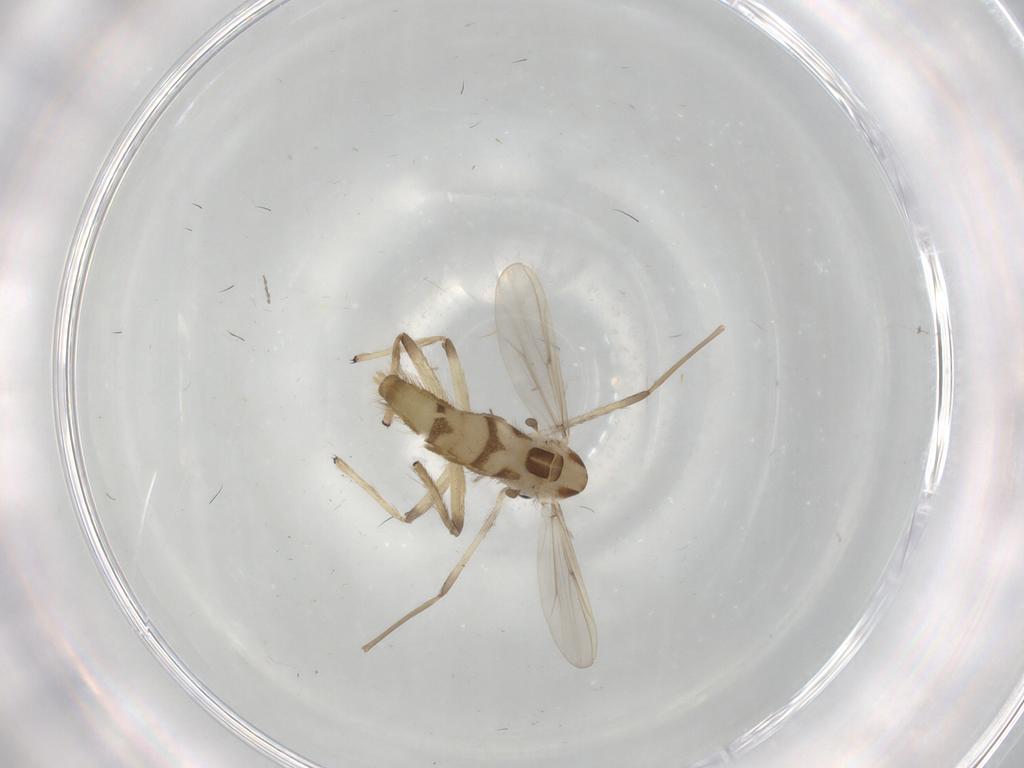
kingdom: Animalia
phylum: Arthropoda
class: Insecta
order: Diptera
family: Chironomidae
